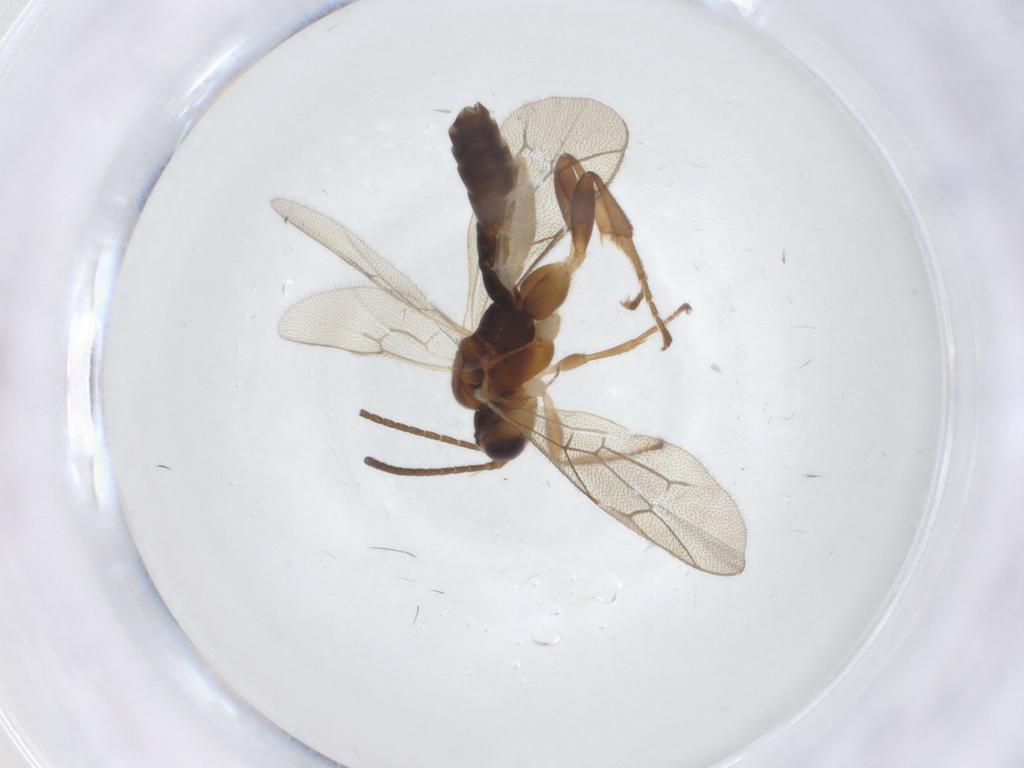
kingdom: Animalia
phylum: Arthropoda
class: Insecta
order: Hymenoptera
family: Ichneumonidae
